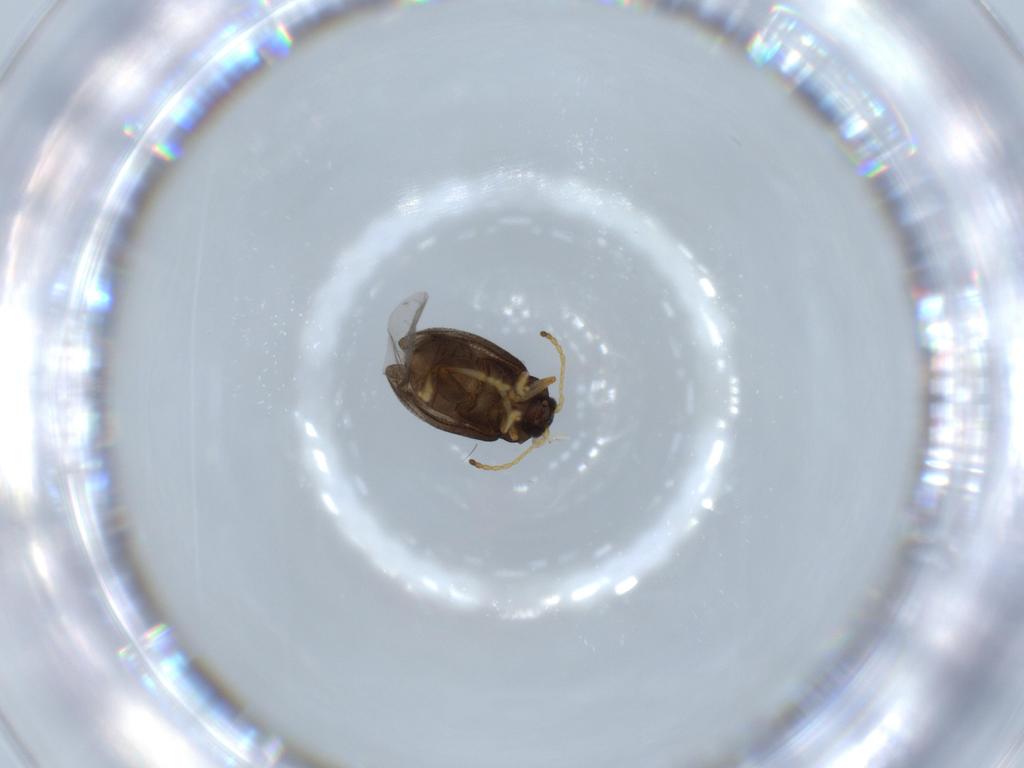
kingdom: Animalia
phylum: Arthropoda
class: Insecta
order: Coleoptera
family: Chrysomelidae
